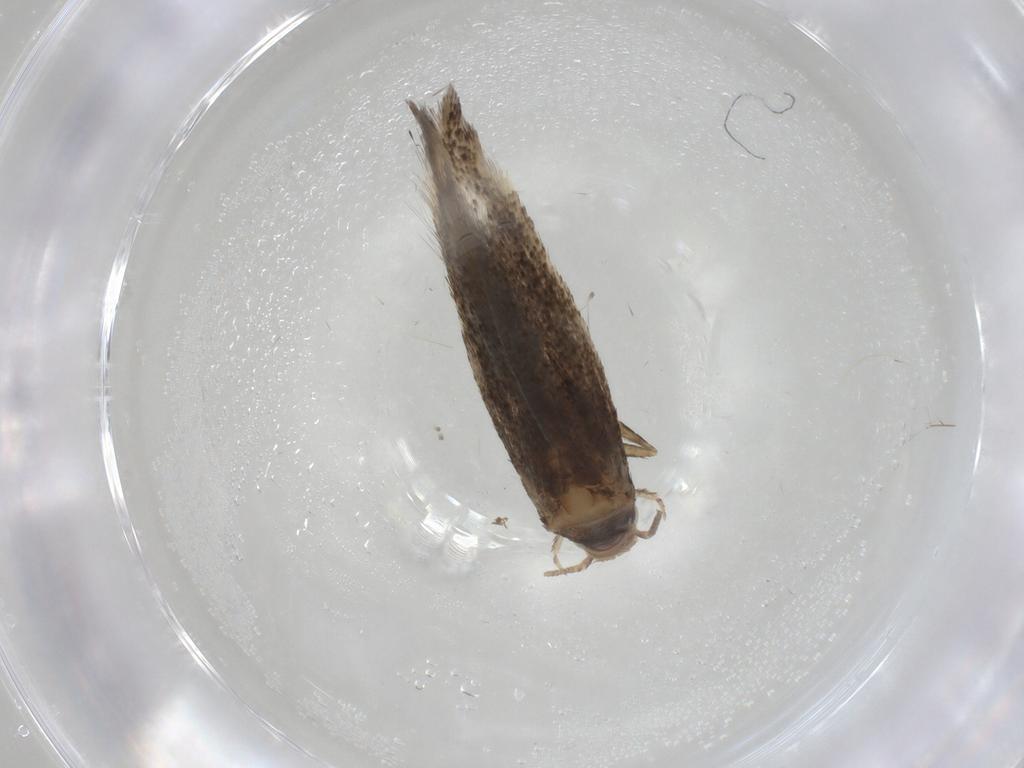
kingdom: Animalia
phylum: Arthropoda
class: Insecta
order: Lepidoptera
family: Elachistidae
